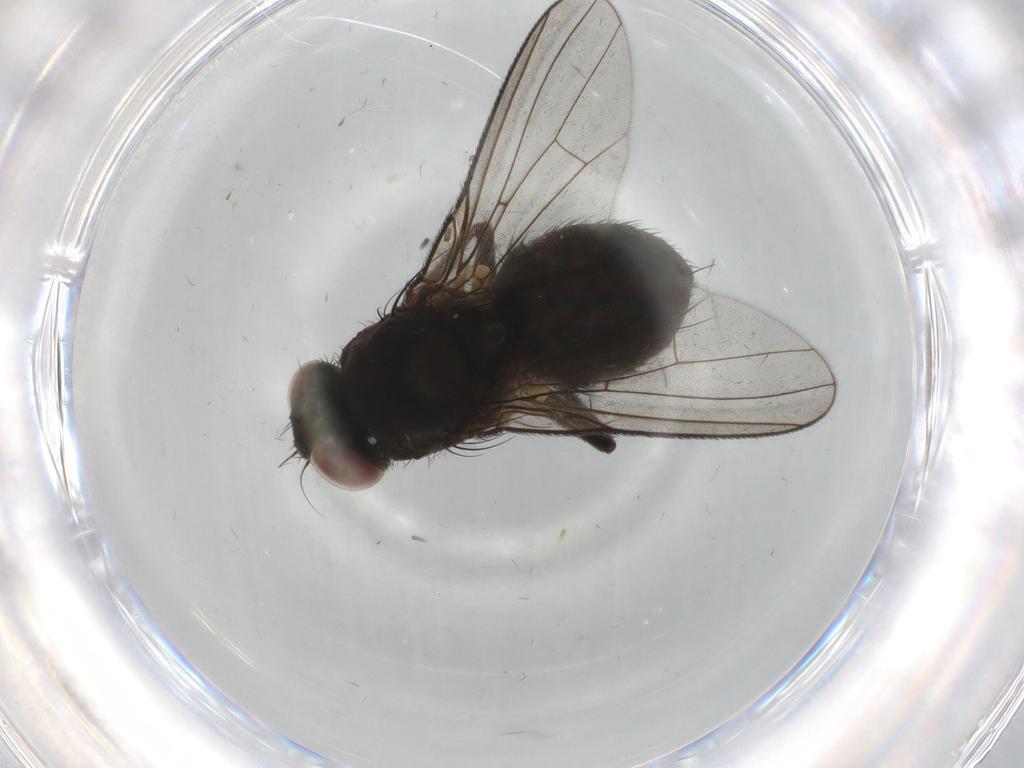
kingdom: Animalia
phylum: Arthropoda
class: Insecta
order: Diptera
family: Muscidae
